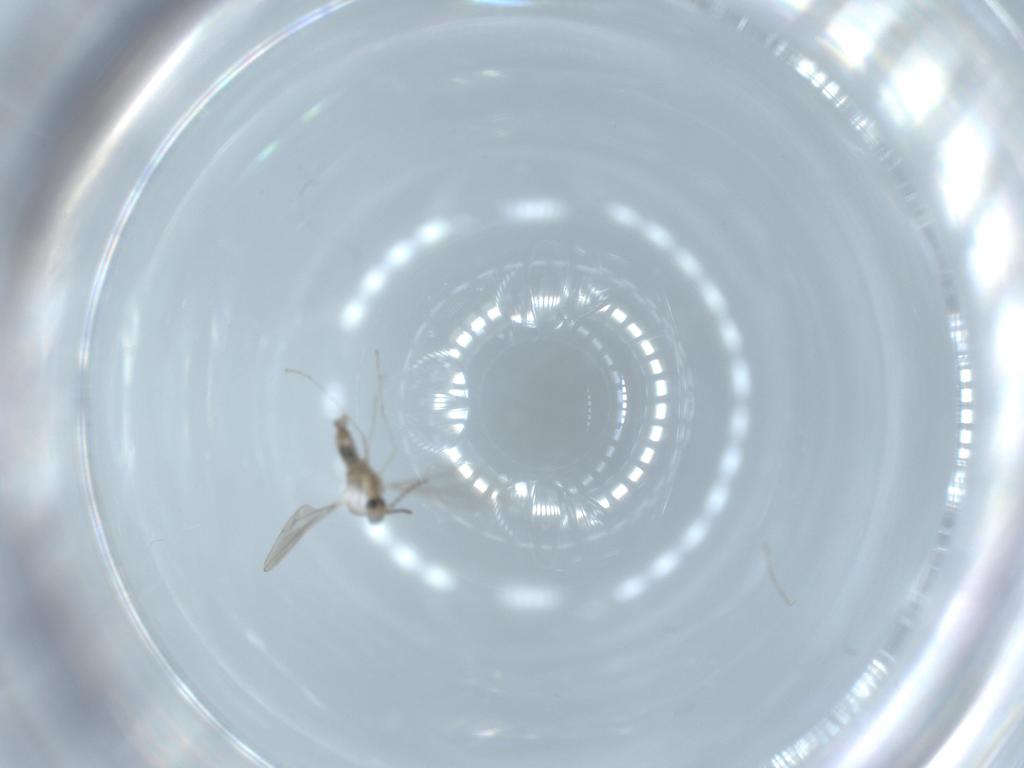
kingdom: Animalia
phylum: Arthropoda
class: Insecta
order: Diptera
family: Cecidomyiidae
